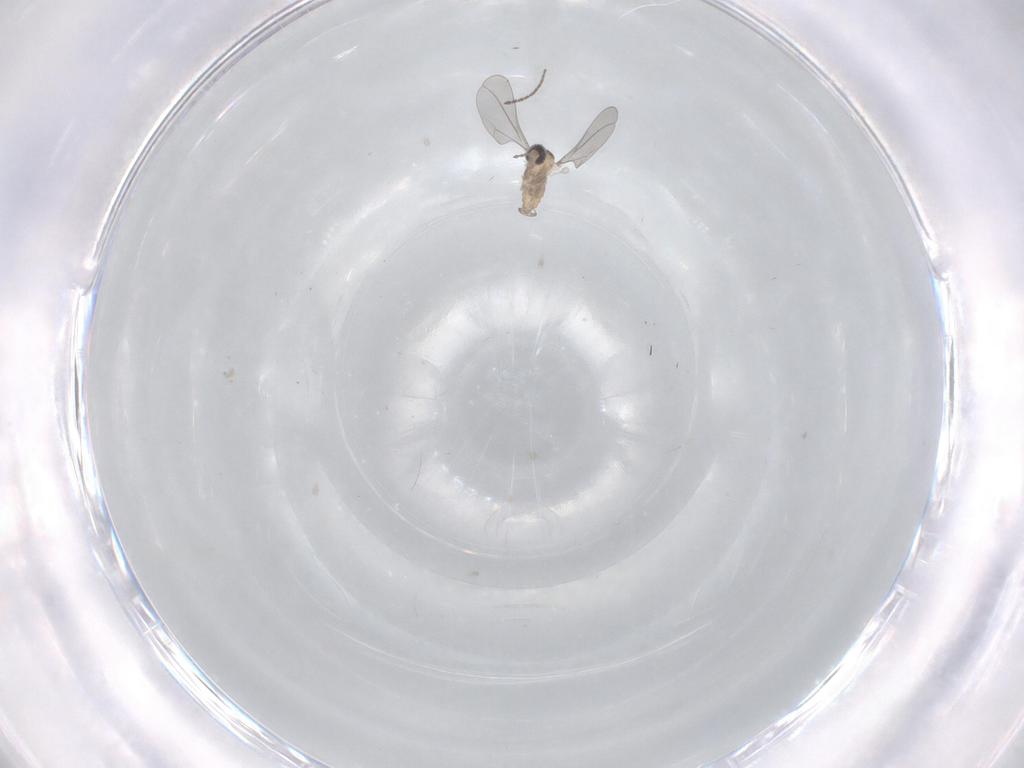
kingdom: Animalia
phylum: Arthropoda
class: Insecta
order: Diptera
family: Cecidomyiidae
